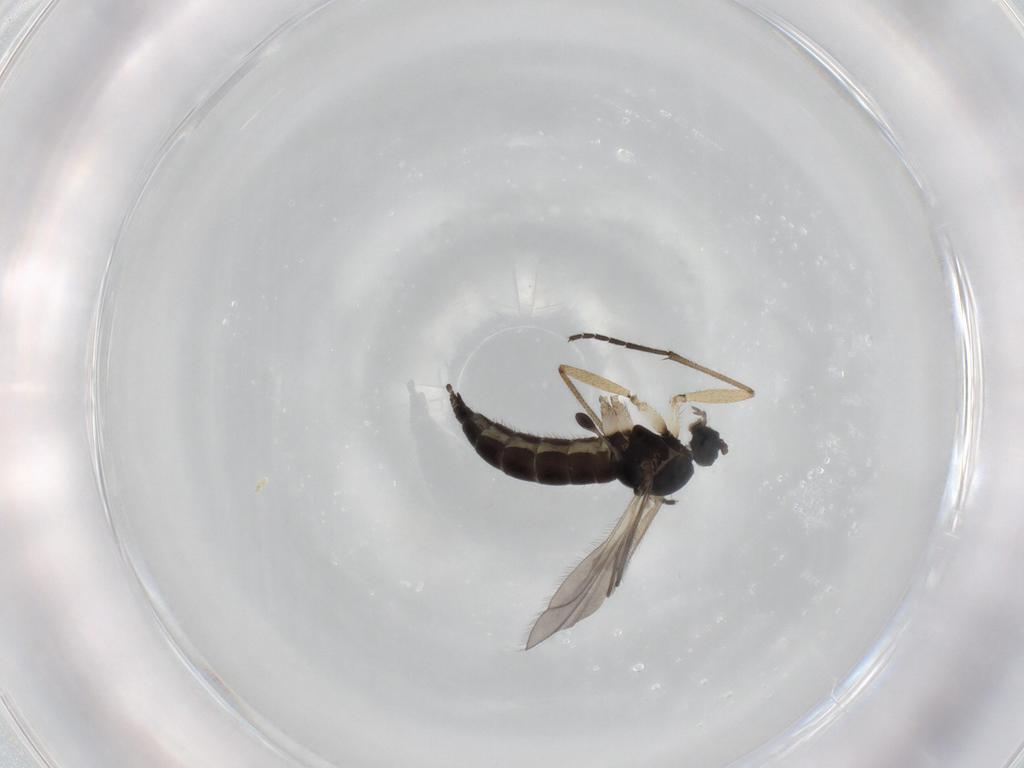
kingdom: Animalia
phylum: Arthropoda
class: Insecta
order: Diptera
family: Sciaridae
